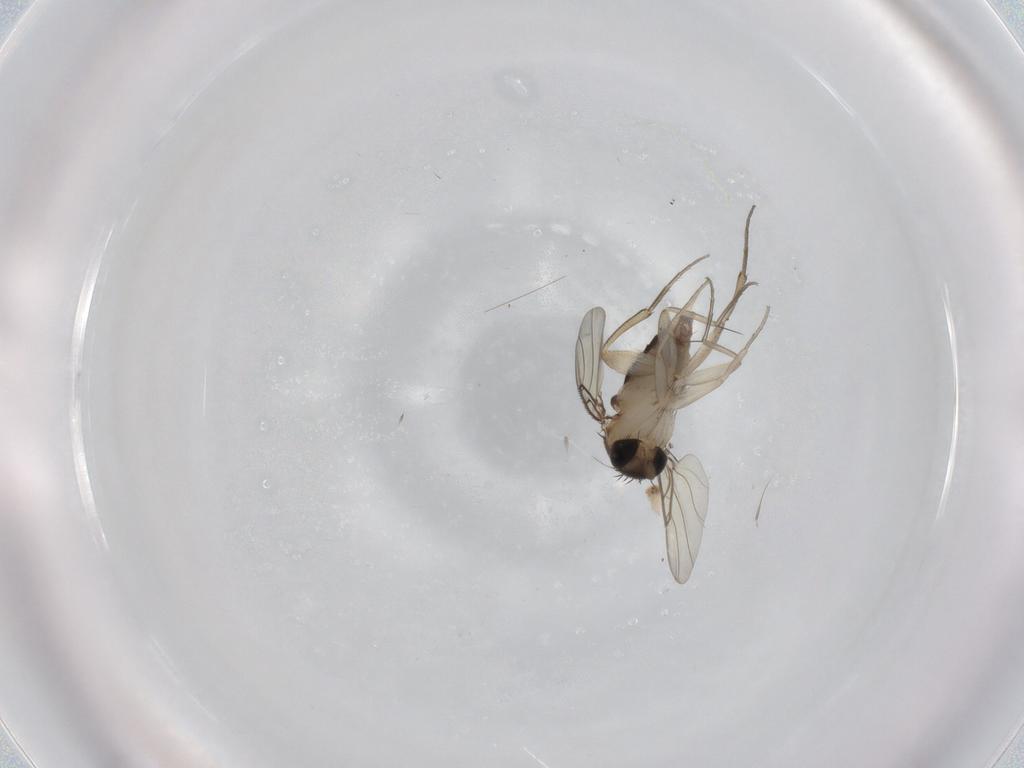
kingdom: Animalia
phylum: Arthropoda
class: Insecta
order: Diptera
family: Phoridae
